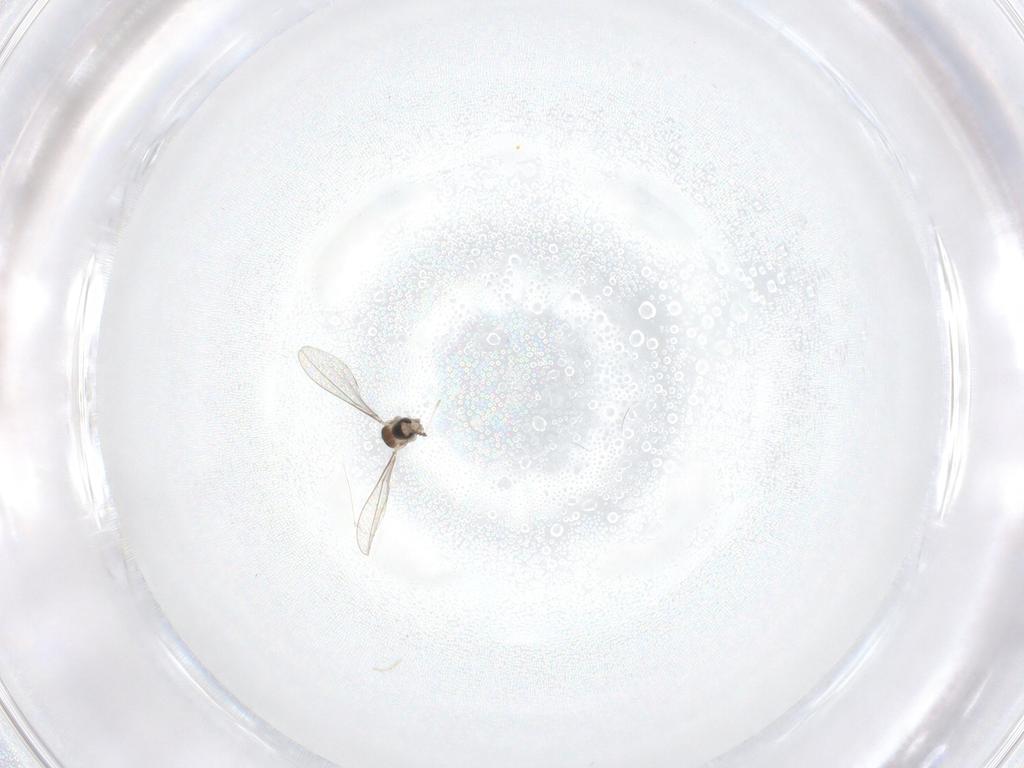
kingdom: Animalia
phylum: Arthropoda
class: Insecta
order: Diptera
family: Cecidomyiidae
